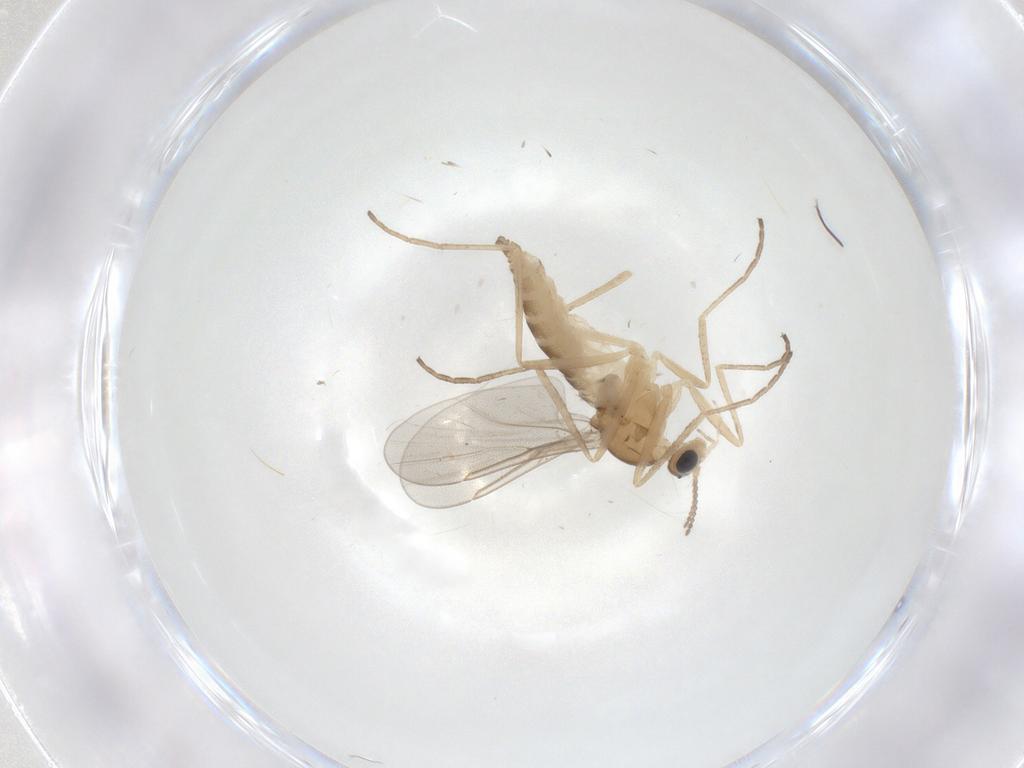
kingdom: Animalia
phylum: Arthropoda
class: Insecta
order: Diptera
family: Cecidomyiidae
